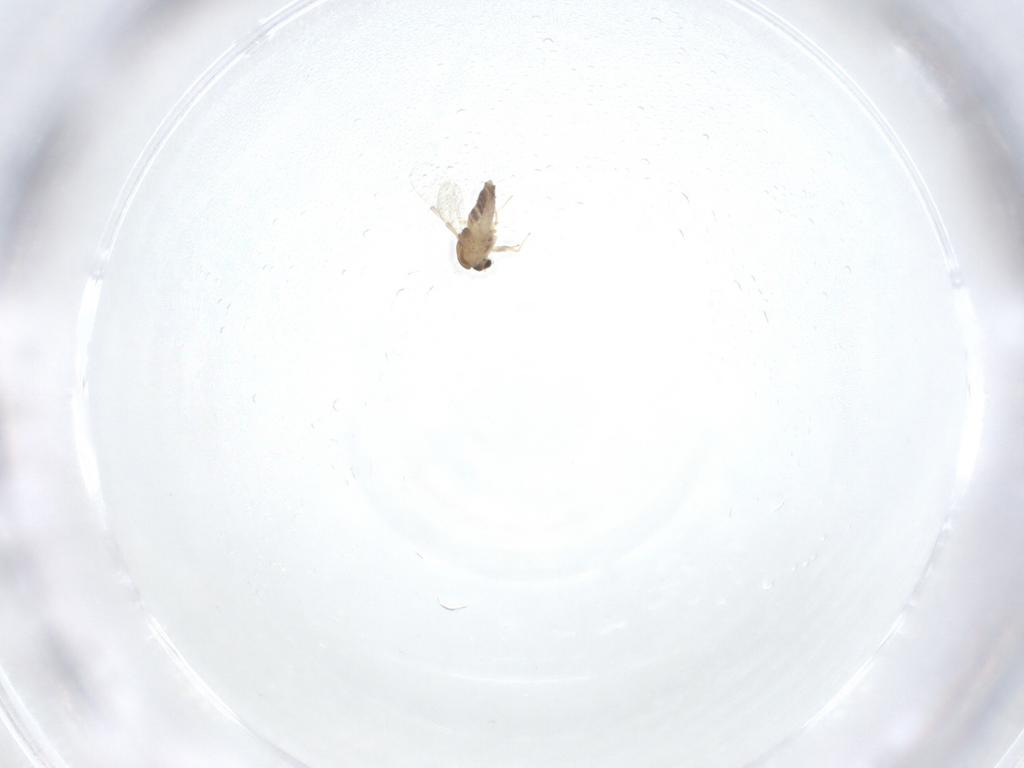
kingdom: Animalia
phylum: Arthropoda
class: Insecta
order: Diptera
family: Chironomidae
